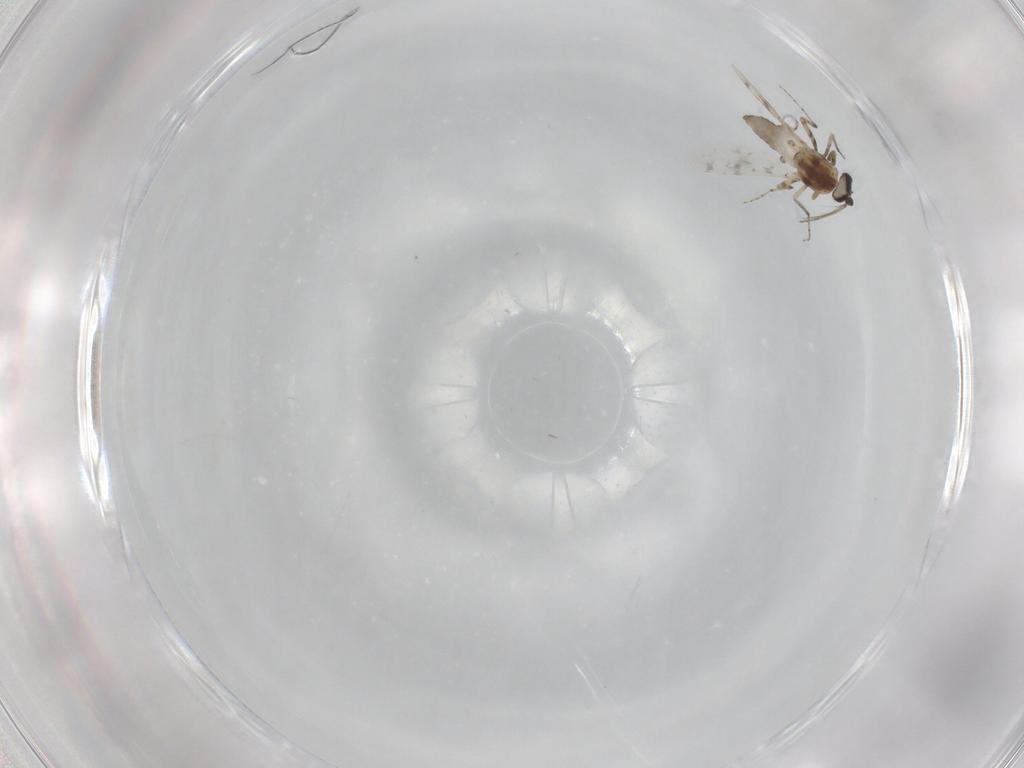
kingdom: Animalia
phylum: Arthropoda
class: Insecta
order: Diptera
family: Ceratopogonidae
